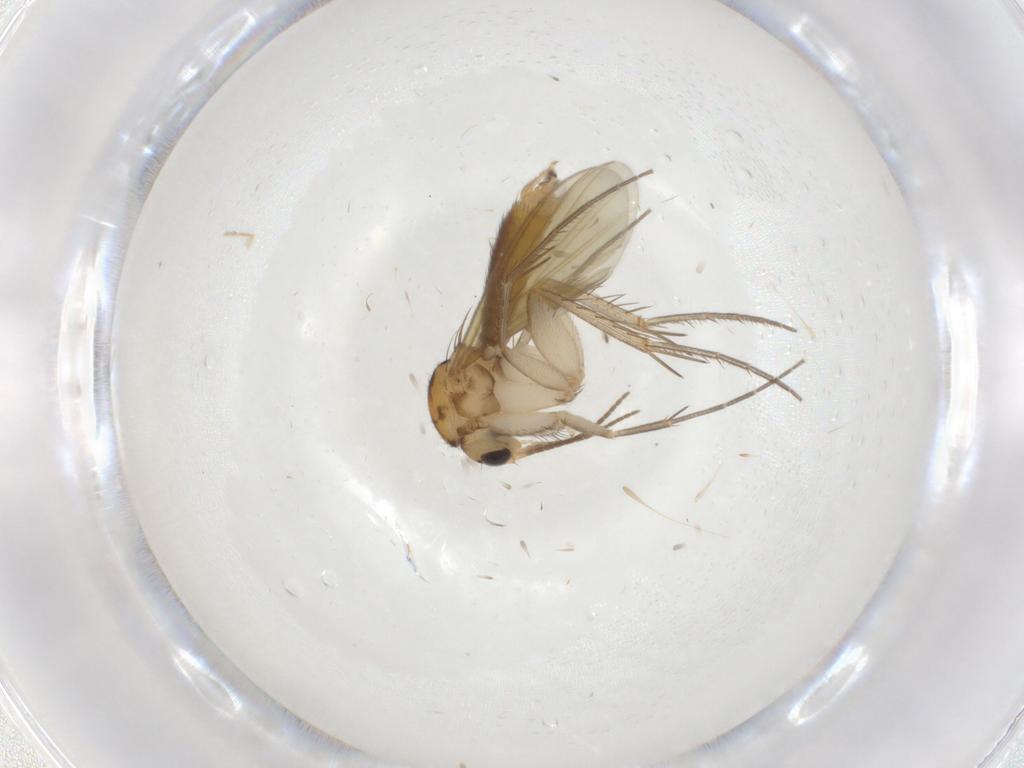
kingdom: Animalia
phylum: Arthropoda
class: Insecta
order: Diptera
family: Mycetophilidae
